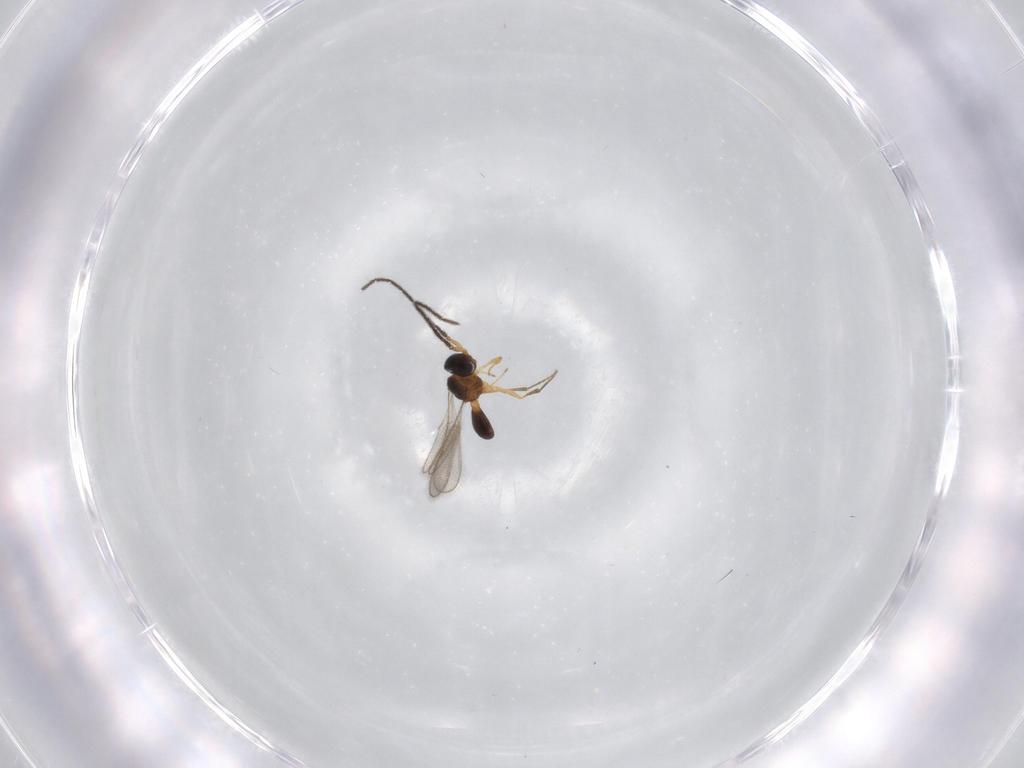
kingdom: Animalia
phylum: Arthropoda
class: Insecta
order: Hymenoptera
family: Scelionidae
